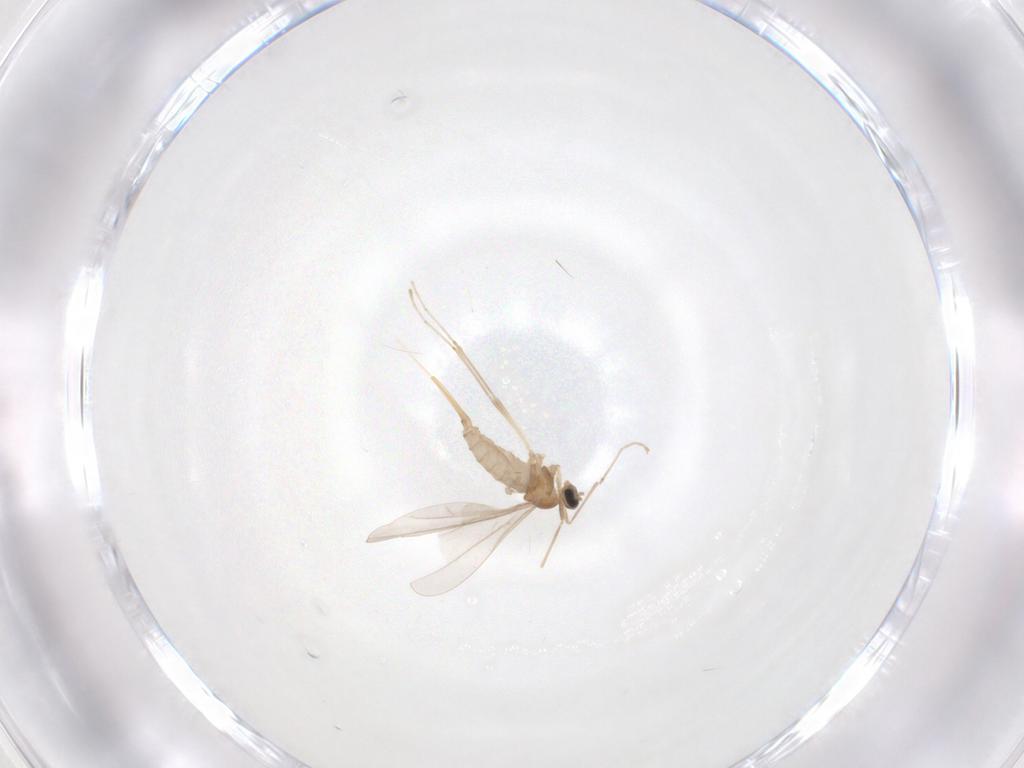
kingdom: Animalia
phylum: Arthropoda
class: Insecta
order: Diptera
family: Cecidomyiidae
